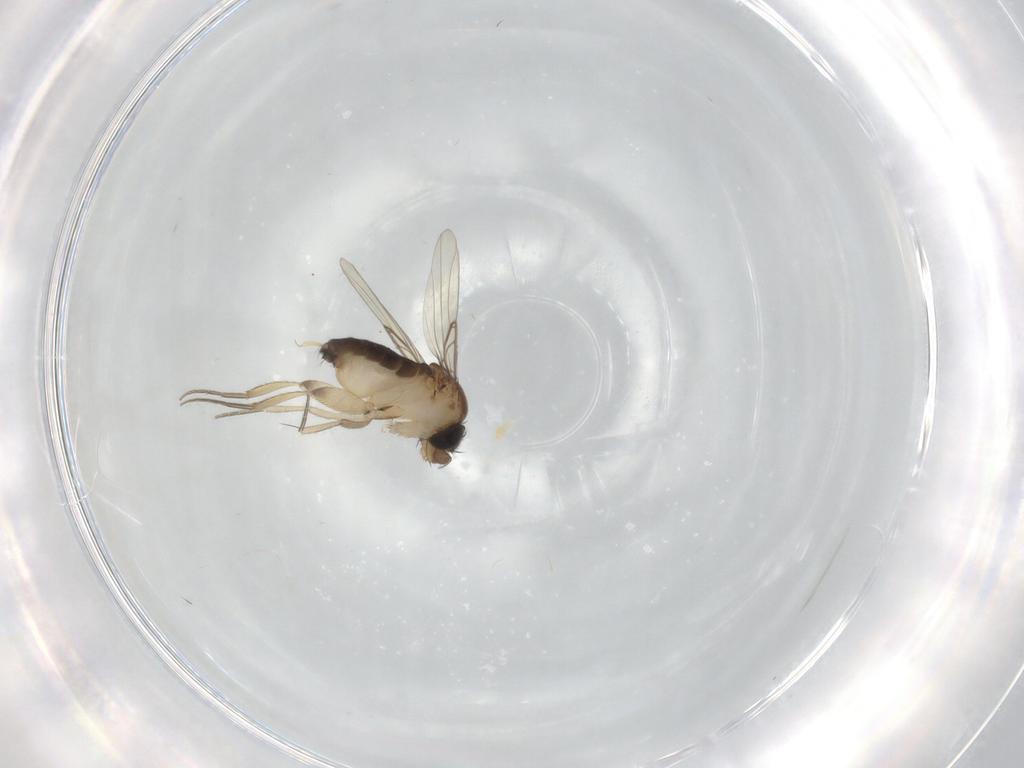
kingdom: Animalia
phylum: Arthropoda
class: Insecta
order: Diptera
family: Phoridae
